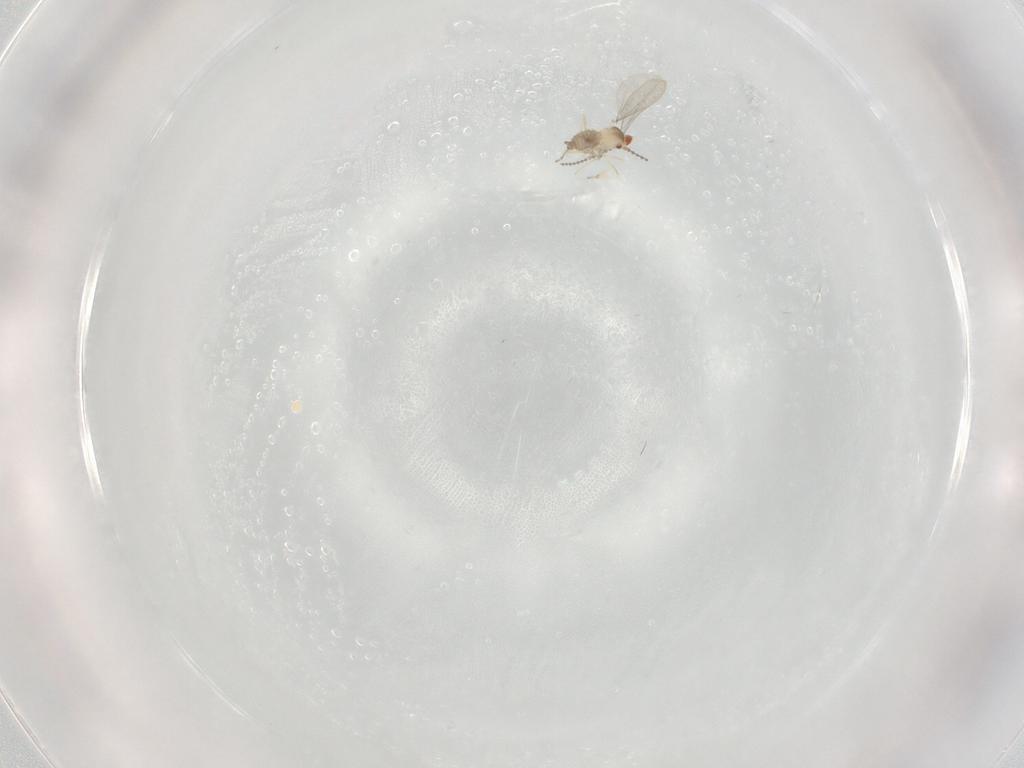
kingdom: Animalia
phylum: Arthropoda
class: Insecta
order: Diptera
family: Cecidomyiidae
